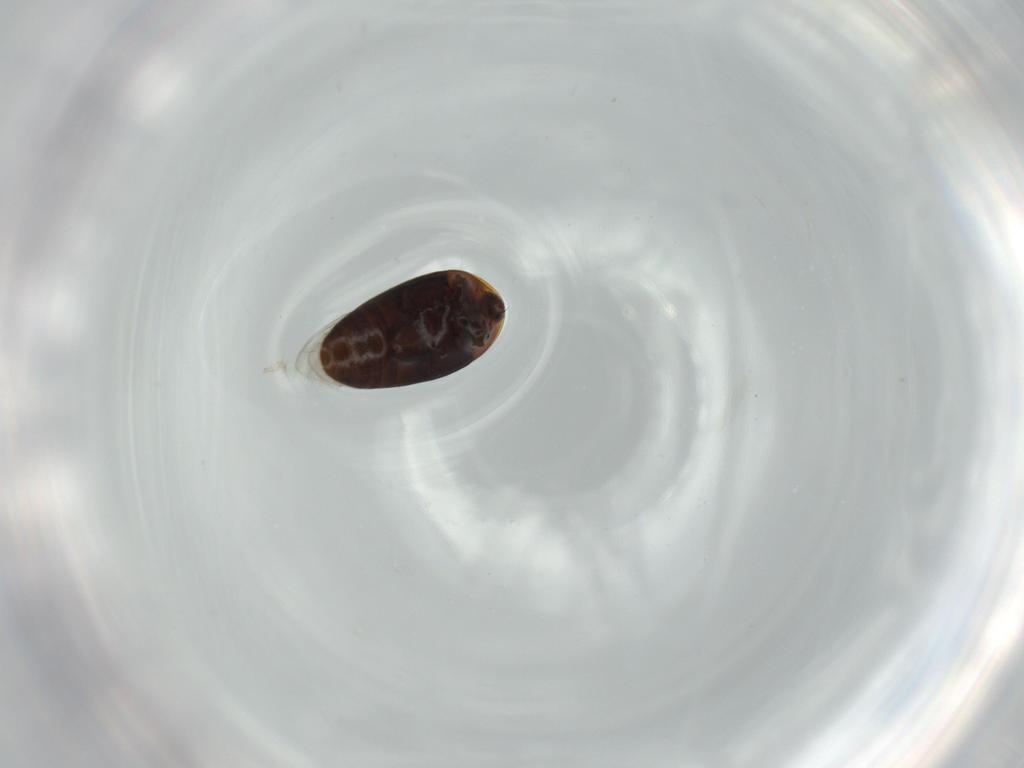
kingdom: Animalia
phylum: Arthropoda
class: Insecta
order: Coleoptera
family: Corylophidae
